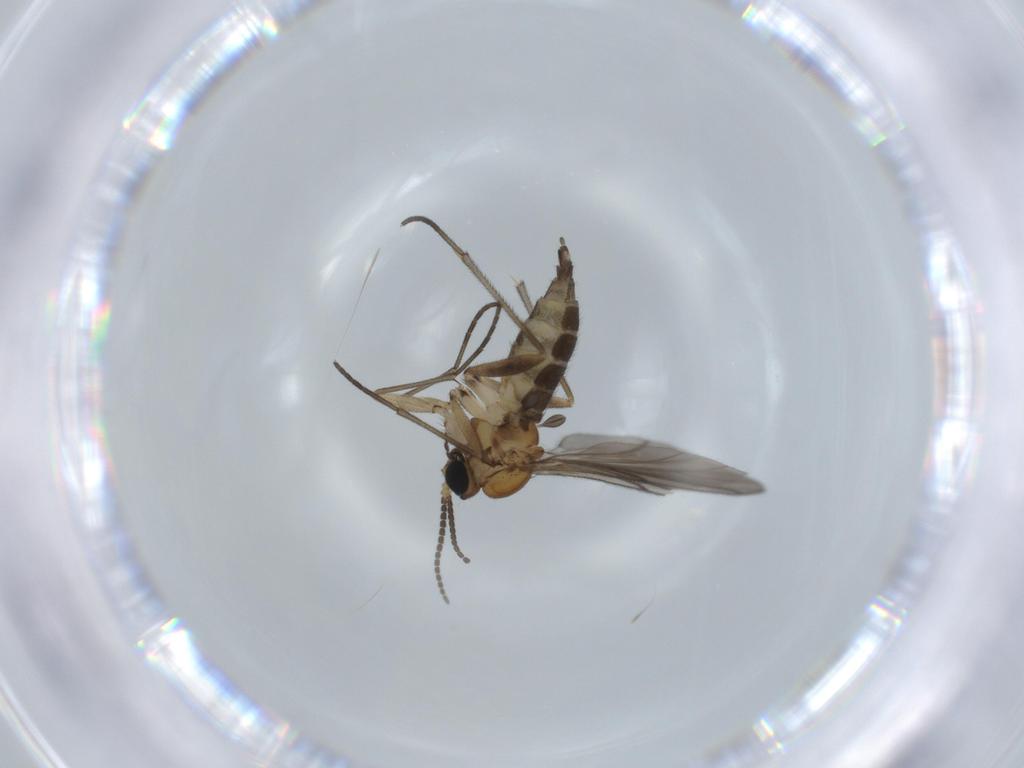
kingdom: Animalia
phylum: Arthropoda
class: Insecta
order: Diptera
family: Sciaridae
